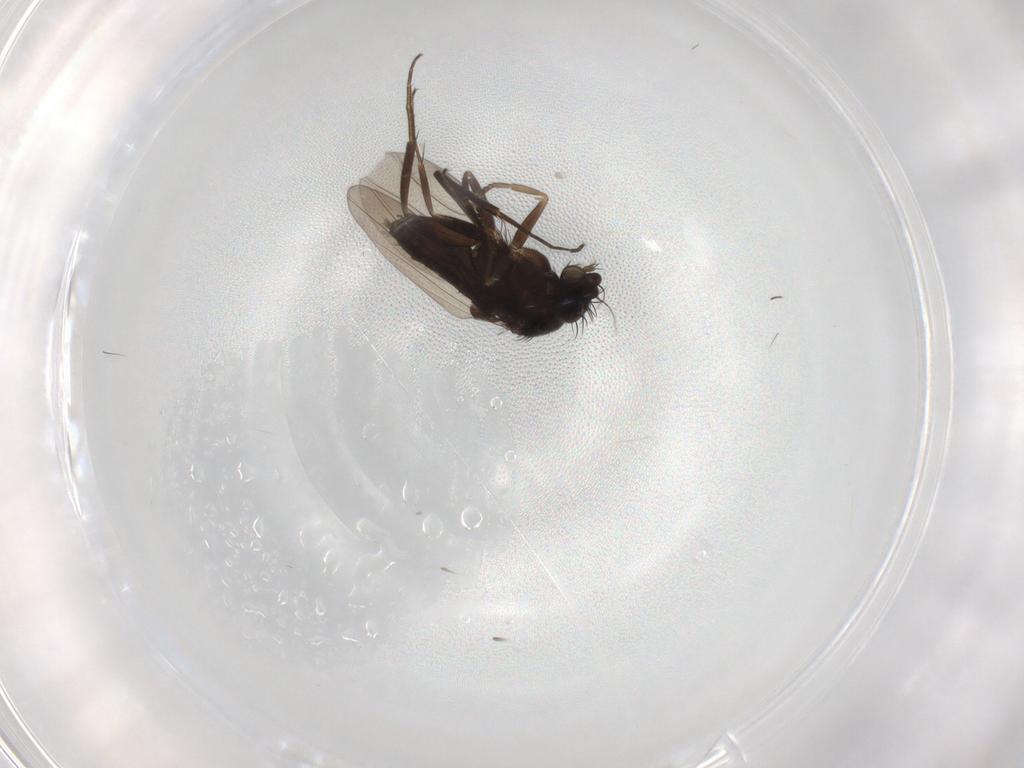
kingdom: Animalia
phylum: Arthropoda
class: Insecta
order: Diptera
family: Phoridae
